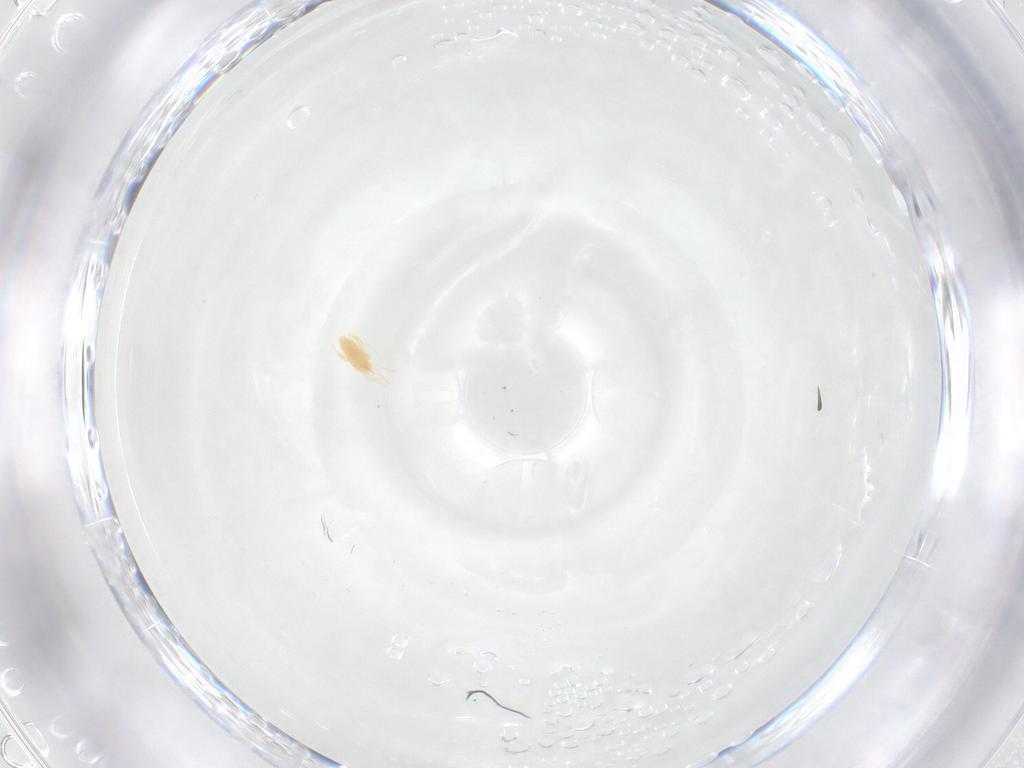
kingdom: Animalia
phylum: Arthropoda
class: Arachnida
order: Trombidiformes
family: Eupodidae
